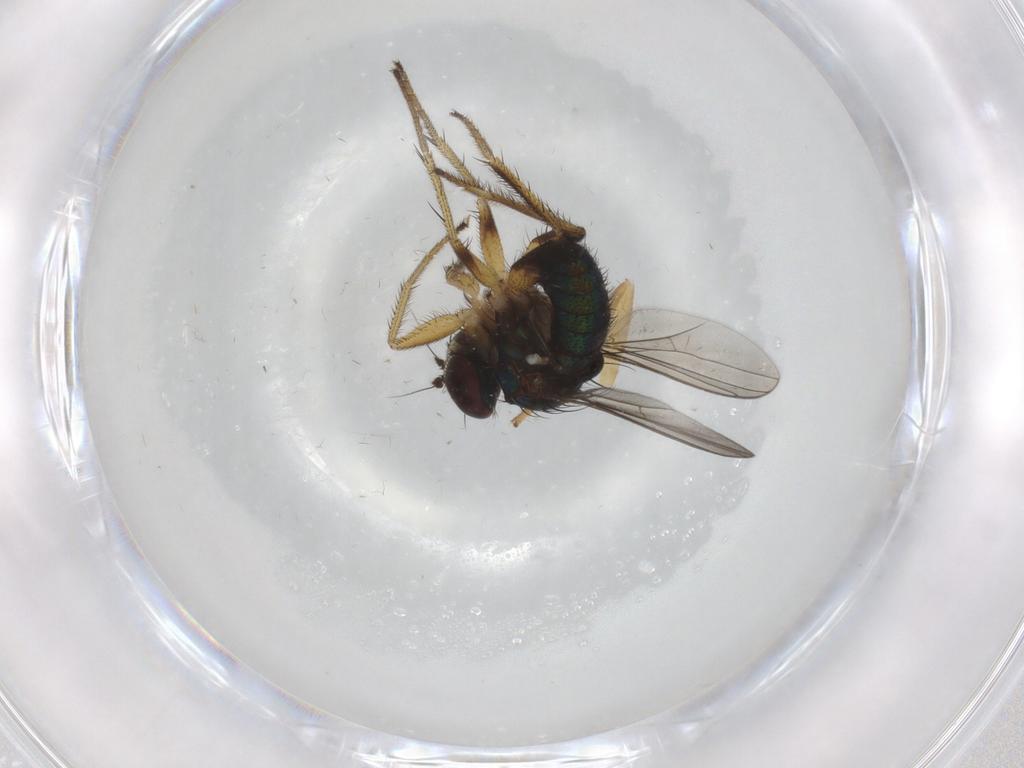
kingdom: Animalia
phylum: Arthropoda
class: Insecta
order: Diptera
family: Dolichopodidae
